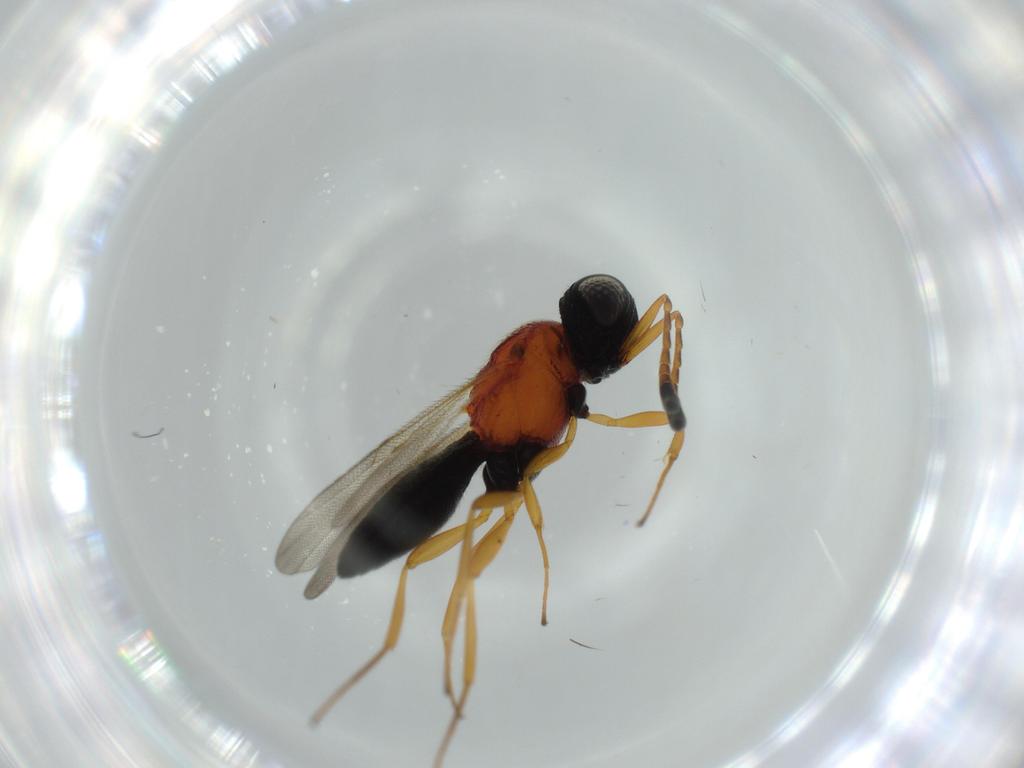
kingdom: Animalia
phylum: Arthropoda
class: Insecta
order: Hymenoptera
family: Scelionidae
